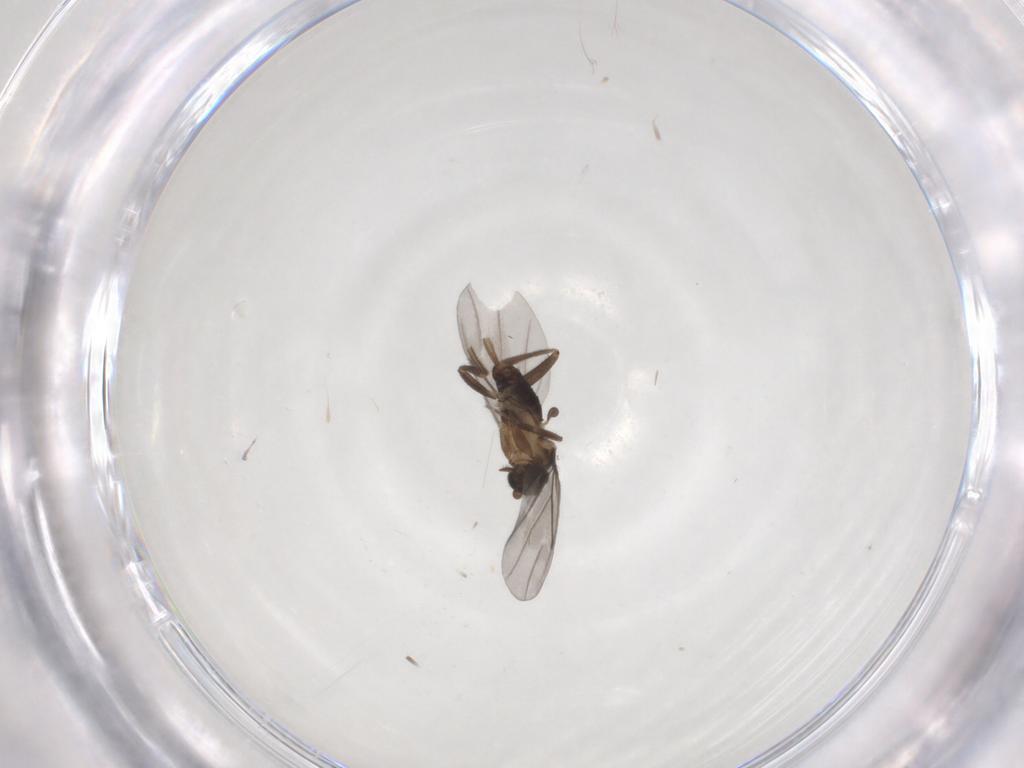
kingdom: Animalia
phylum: Arthropoda
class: Insecta
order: Diptera
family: Phoridae
